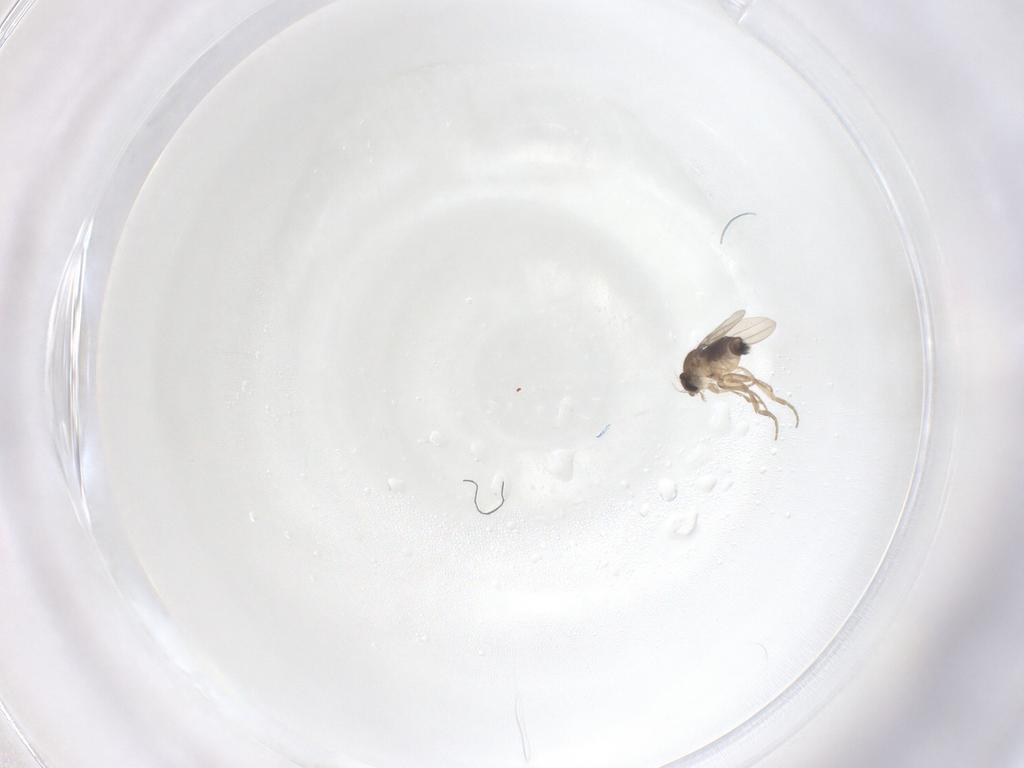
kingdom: Animalia
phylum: Arthropoda
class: Insecta
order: Diptera
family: Phoridae
